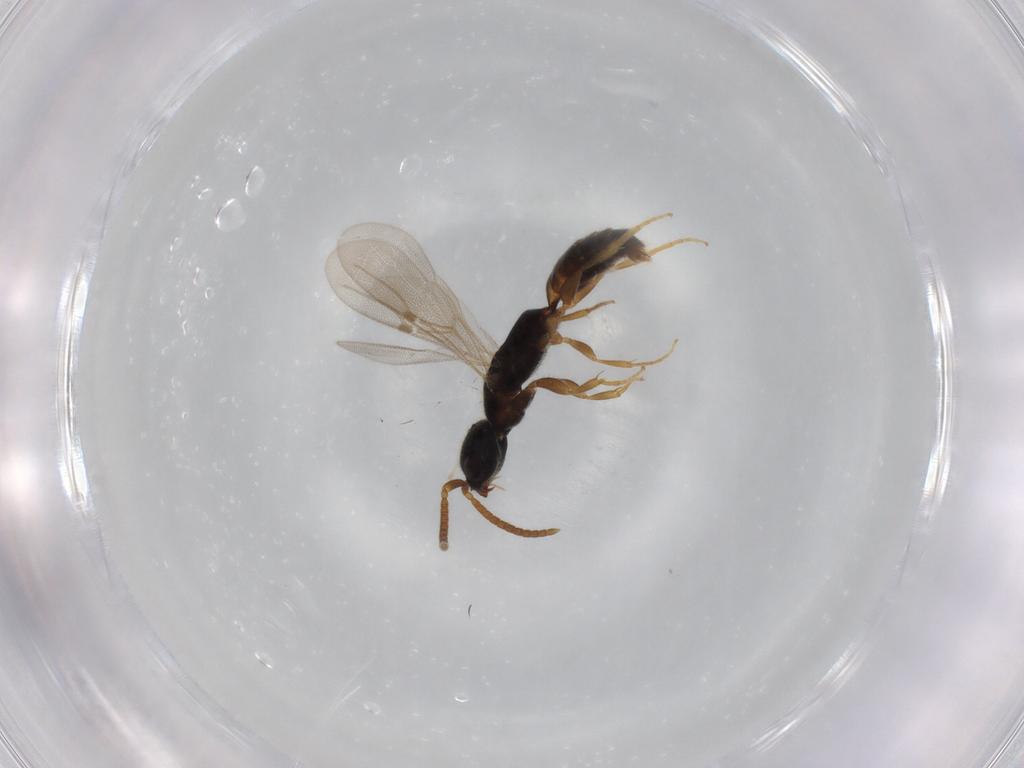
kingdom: Animalia
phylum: Arthropoda
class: Insecta
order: Hymenoptera
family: Bethylidae
